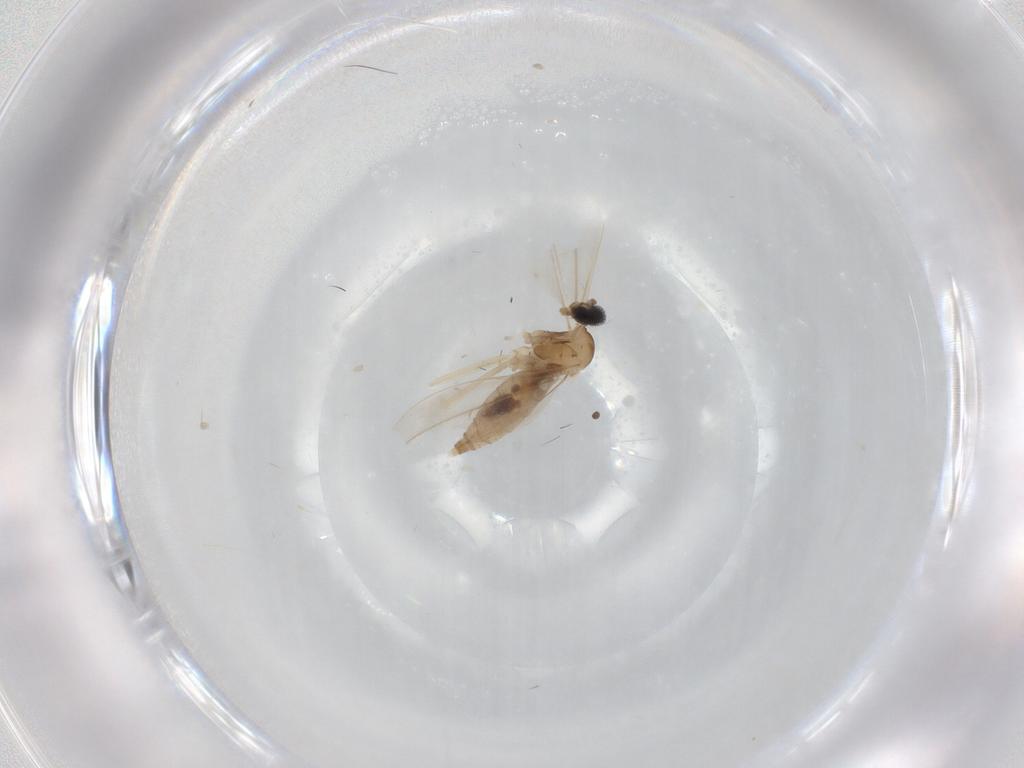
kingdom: Animalia
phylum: Arthropoda
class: Insecta
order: Diptera
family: Cecidomyiidae
